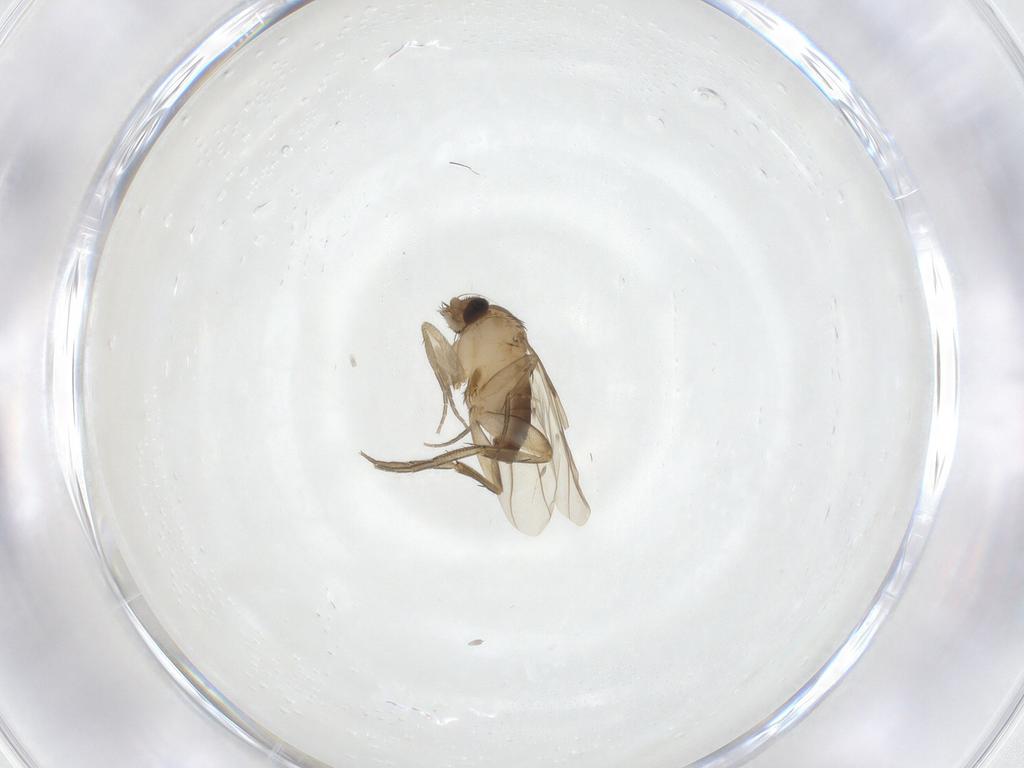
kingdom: Animalia
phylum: Arthropoda
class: Insecta
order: Diptera
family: Phoridae
